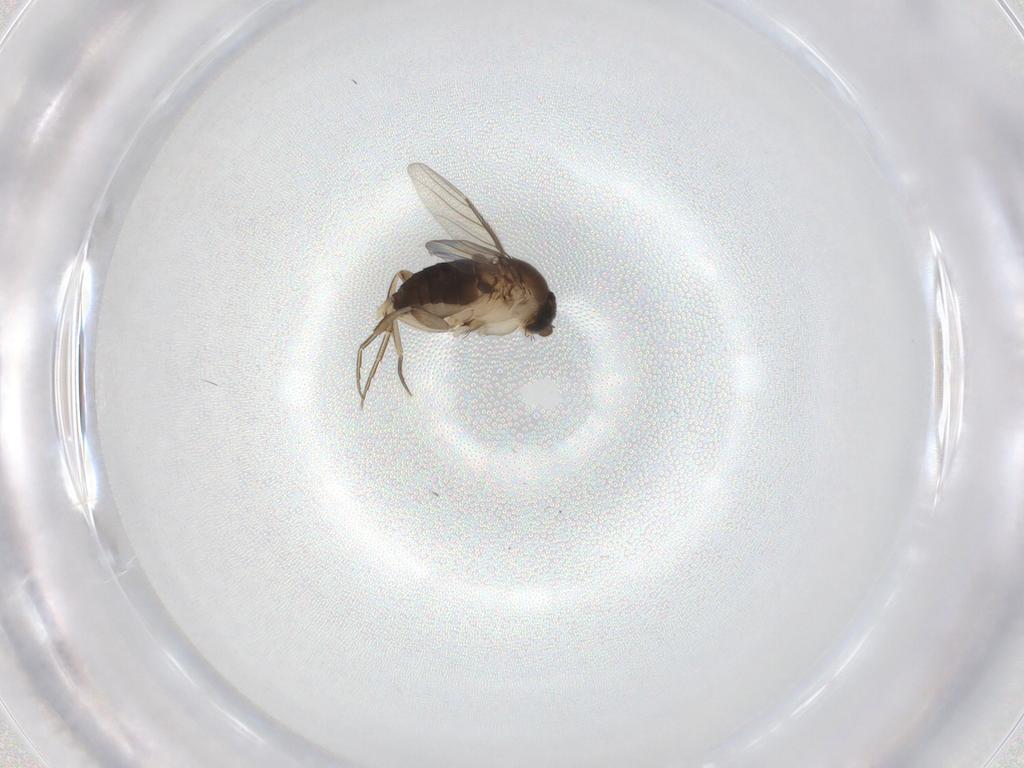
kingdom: Animalia
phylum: Arthropoda
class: Insecta
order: Diptera
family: Phoridae
